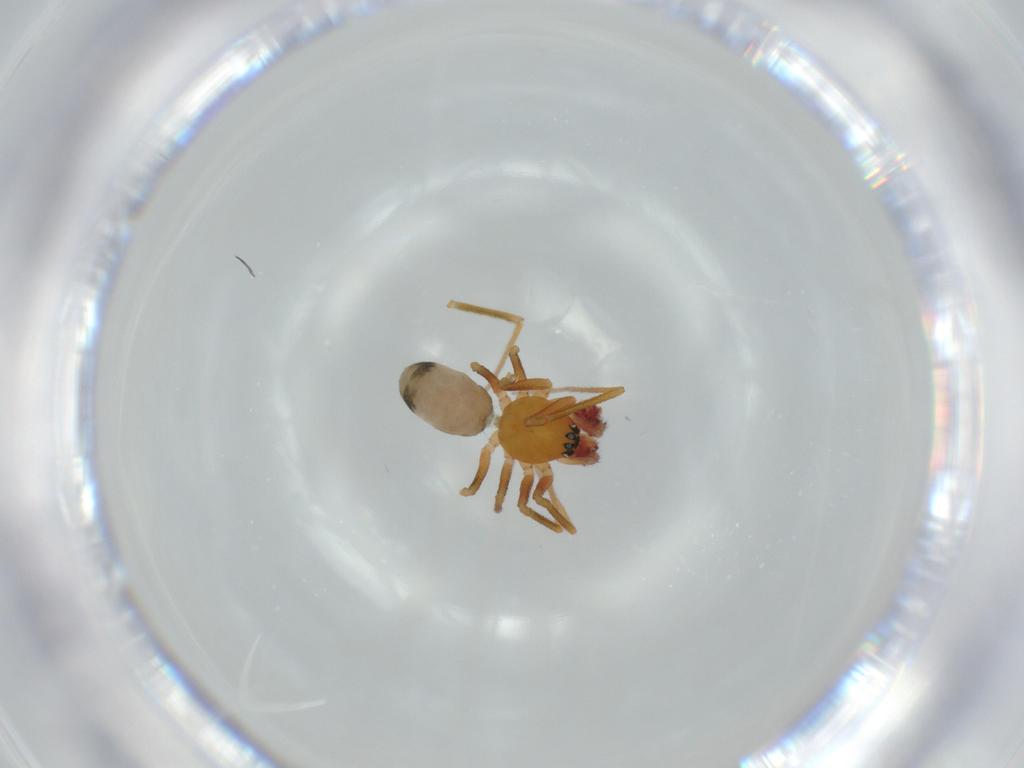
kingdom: Animalia
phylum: Arthropoda
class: Arachnida
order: Araneae
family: Linyphiidae
